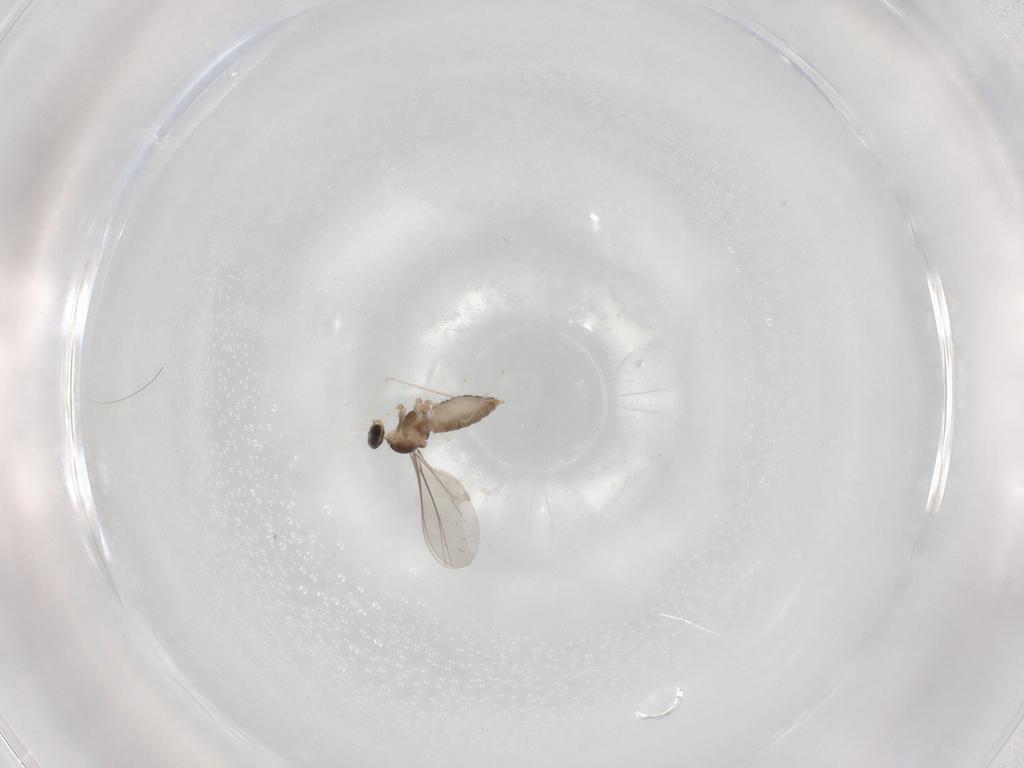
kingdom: Animalia
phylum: Arthropoda
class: Insecta
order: Diptera
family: Cecidomyiidae
